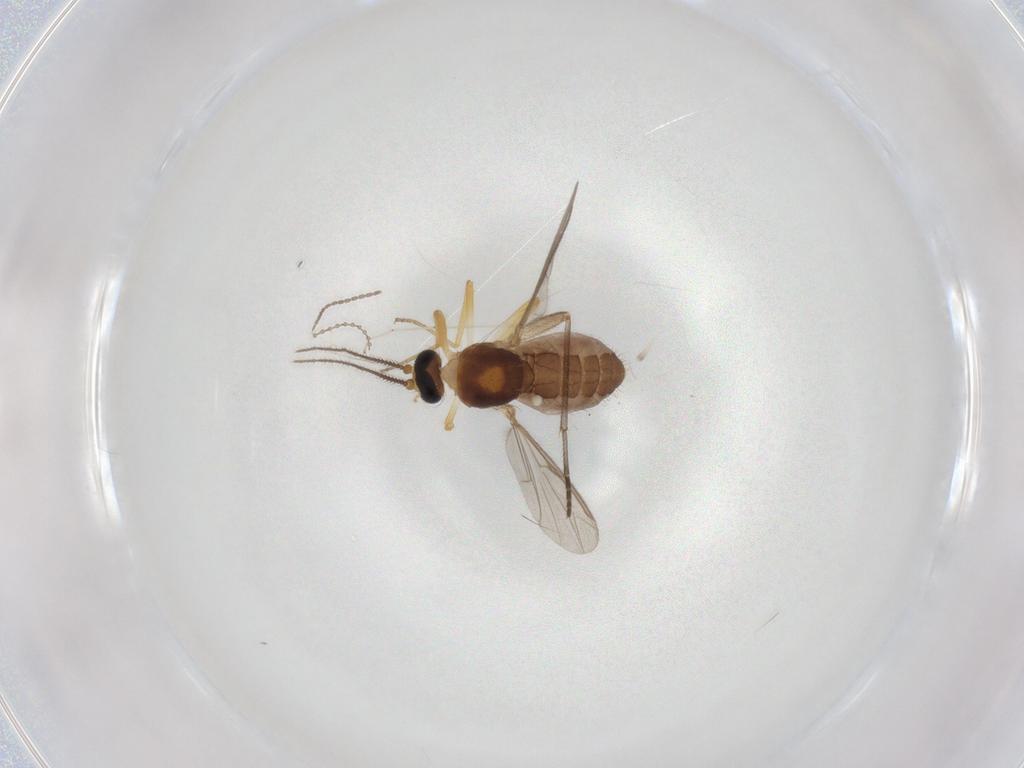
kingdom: Animalia
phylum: Arthropoda
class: Insecta
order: Diptera
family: Ceratopogonidae
